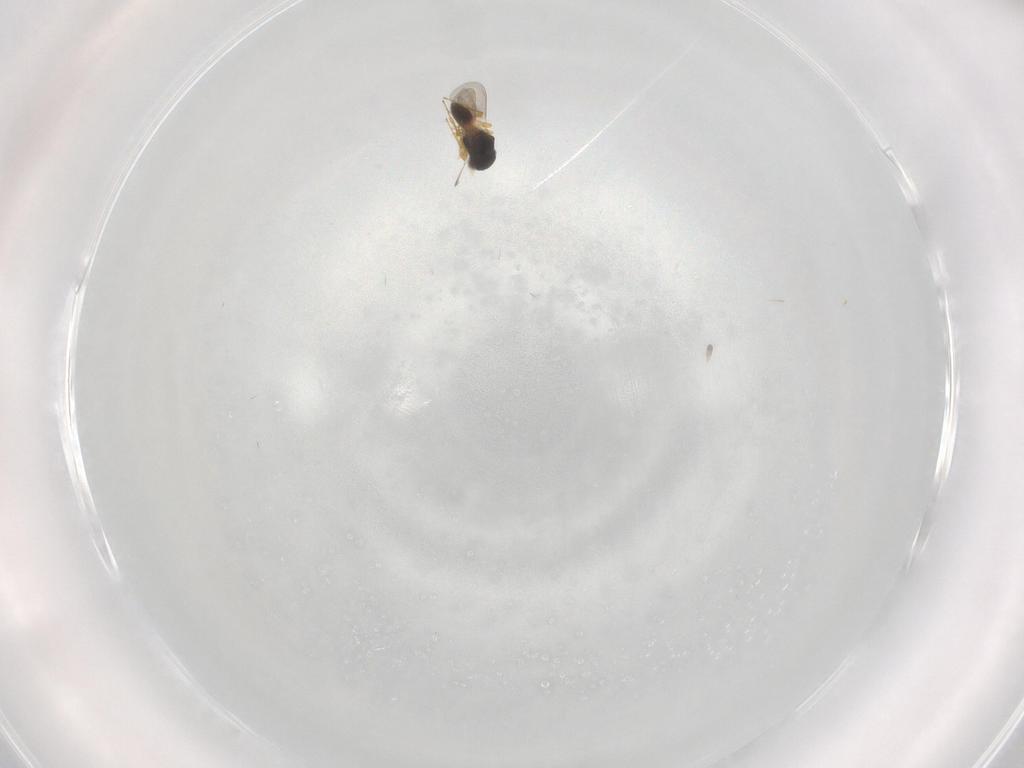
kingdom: Animalia
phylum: Arthropoda
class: Insecta
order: Hymenoptera
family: Platygastridae
